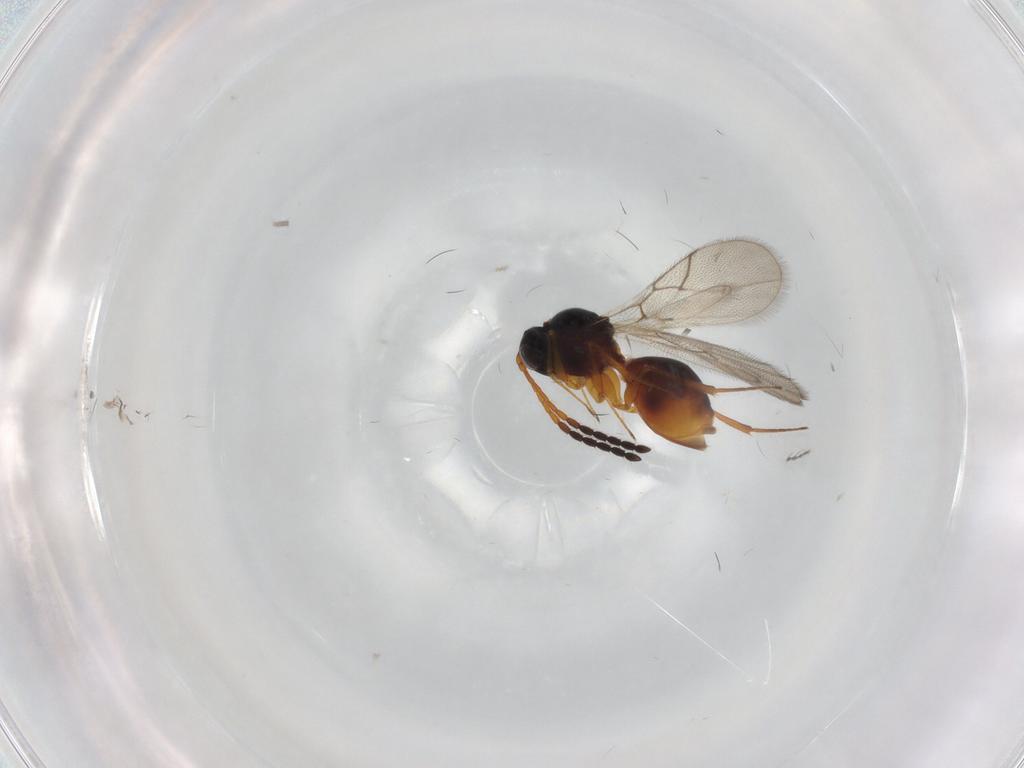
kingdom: Animalia
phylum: Arthropoda
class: Insecta
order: Hymenoptera
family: Figitidae
